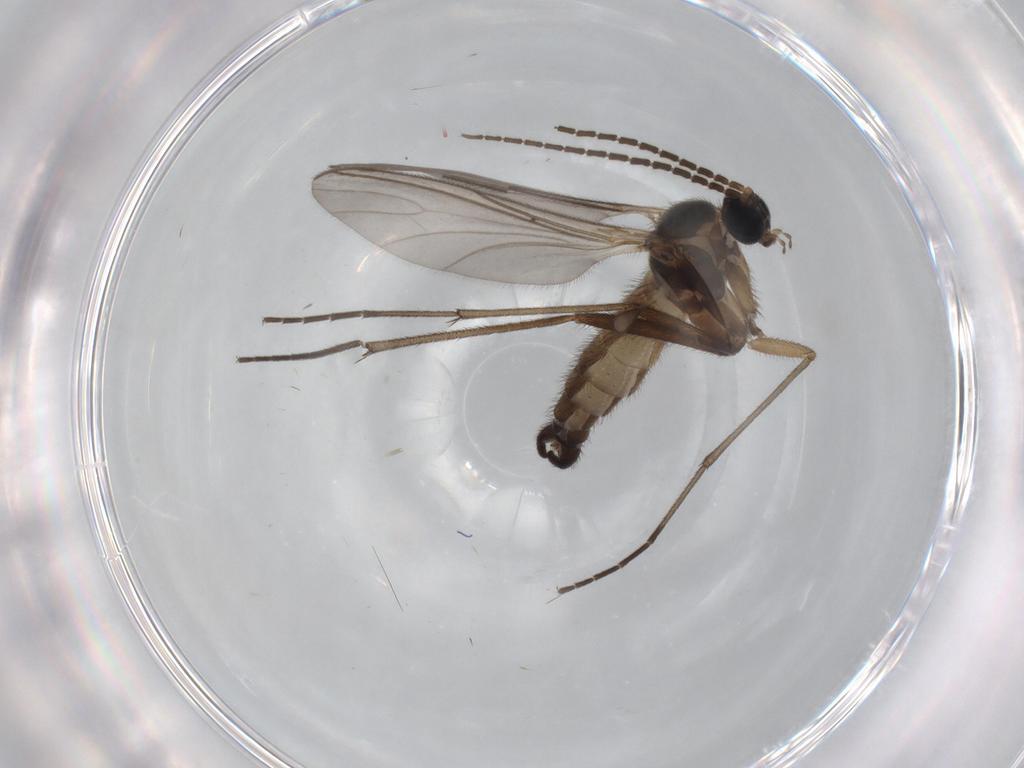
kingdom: Animalia
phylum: Arthropoda
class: Insecta
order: Diptera
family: Sciaridae
